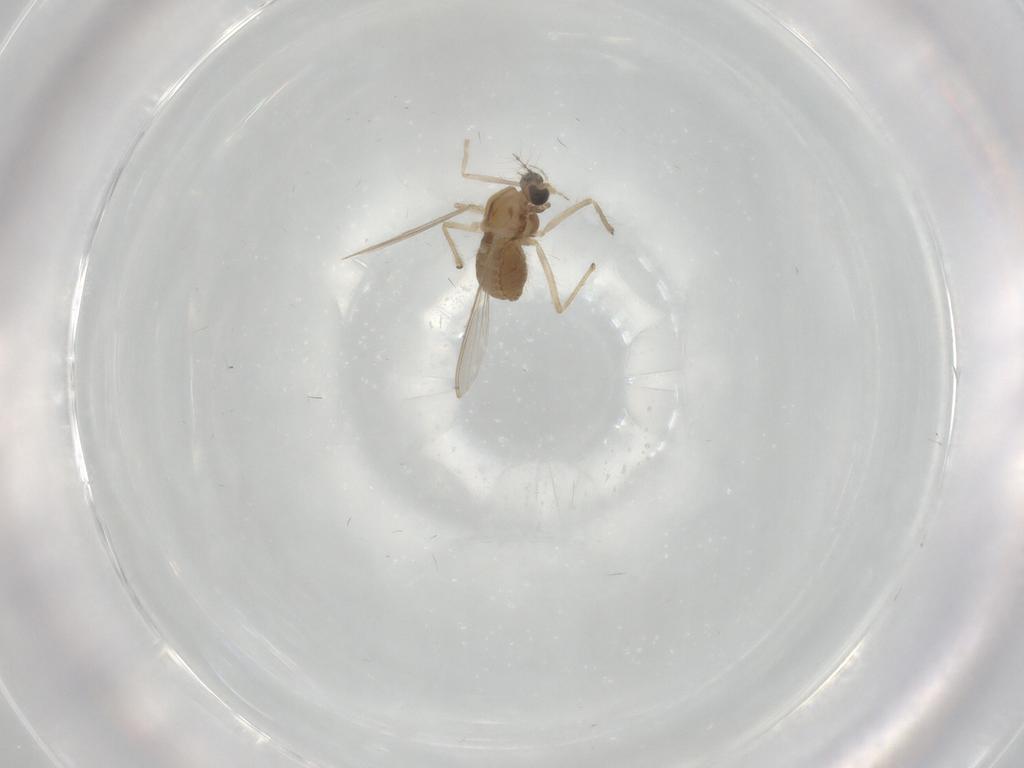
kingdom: Animalia
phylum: Arthropoda
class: Insecta
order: Diptera
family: Chironomidae
